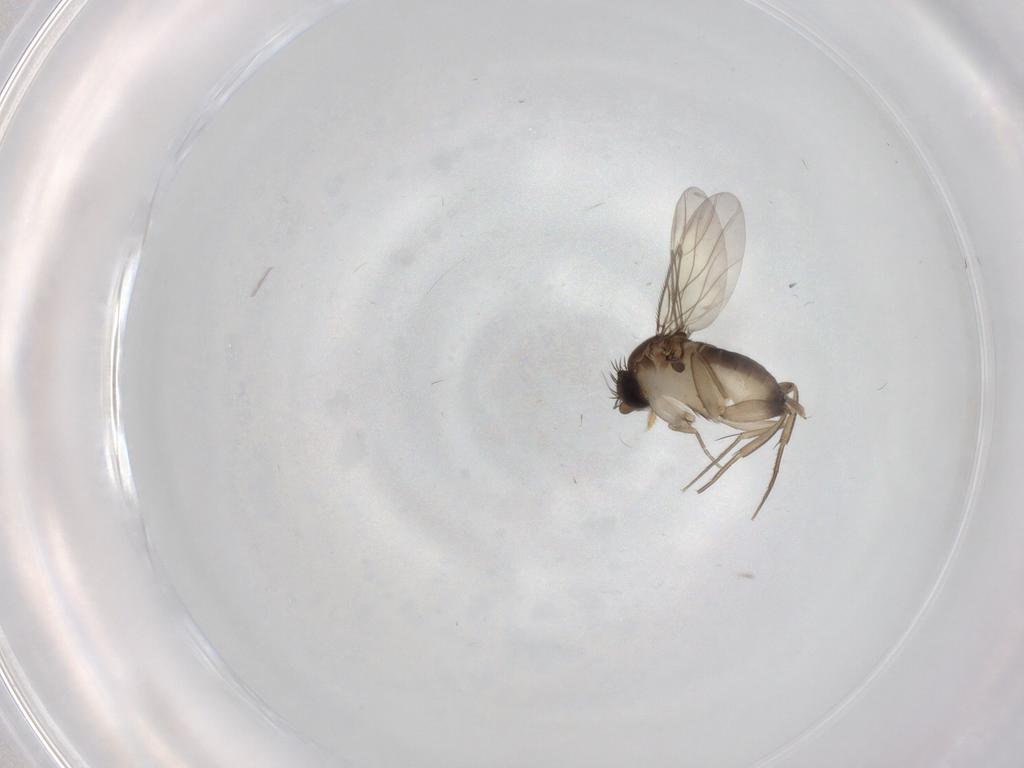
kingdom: Animalia
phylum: Arthropoda
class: Insecta
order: Diptera
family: Phoridae
